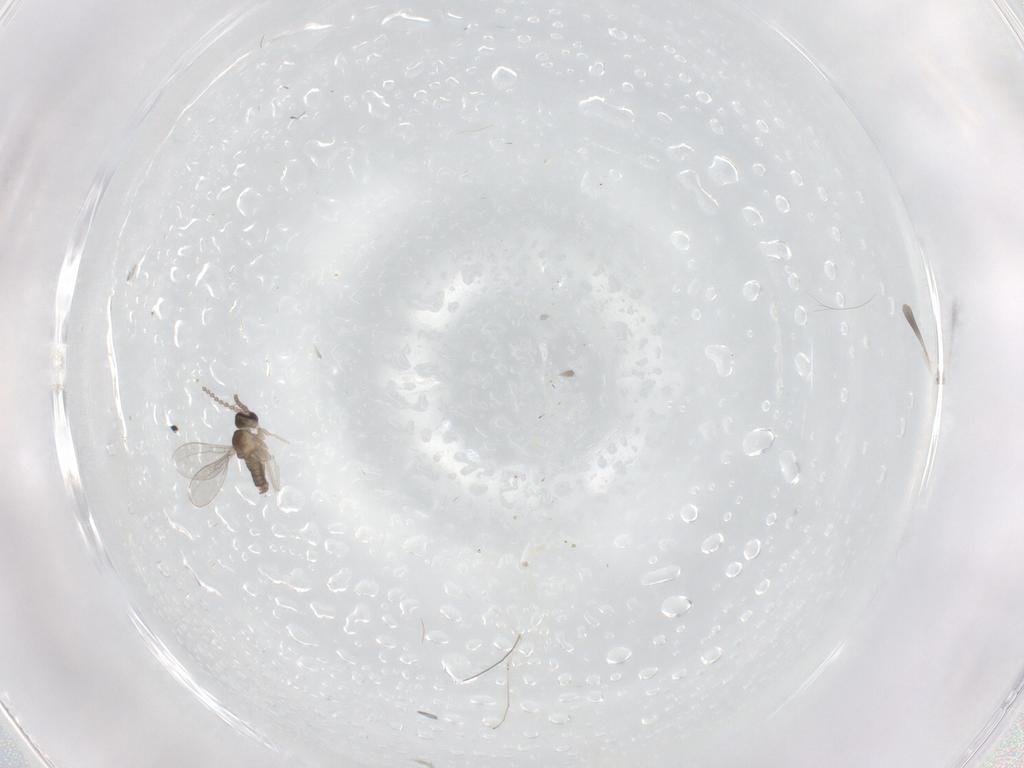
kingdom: Animalia
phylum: Arthropoda
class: Insecta
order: Diptera
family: Cecidomyiidae
